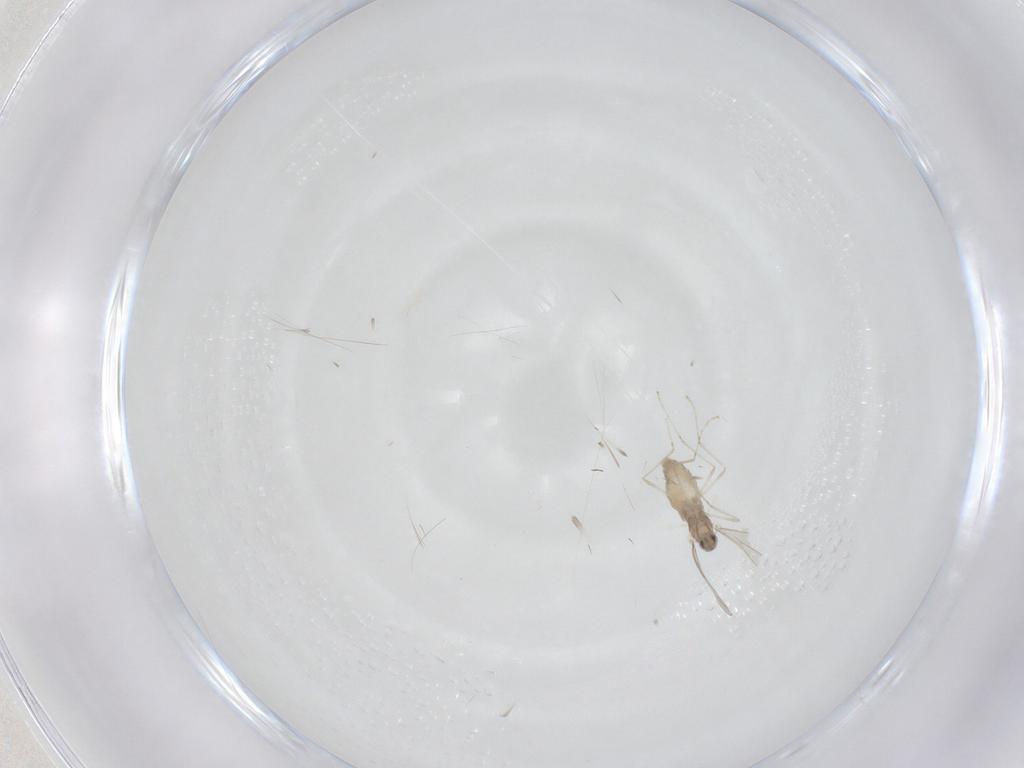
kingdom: Animalia
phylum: Arthropoda
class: Insecta
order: Diptera
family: Cecidomyiidae
